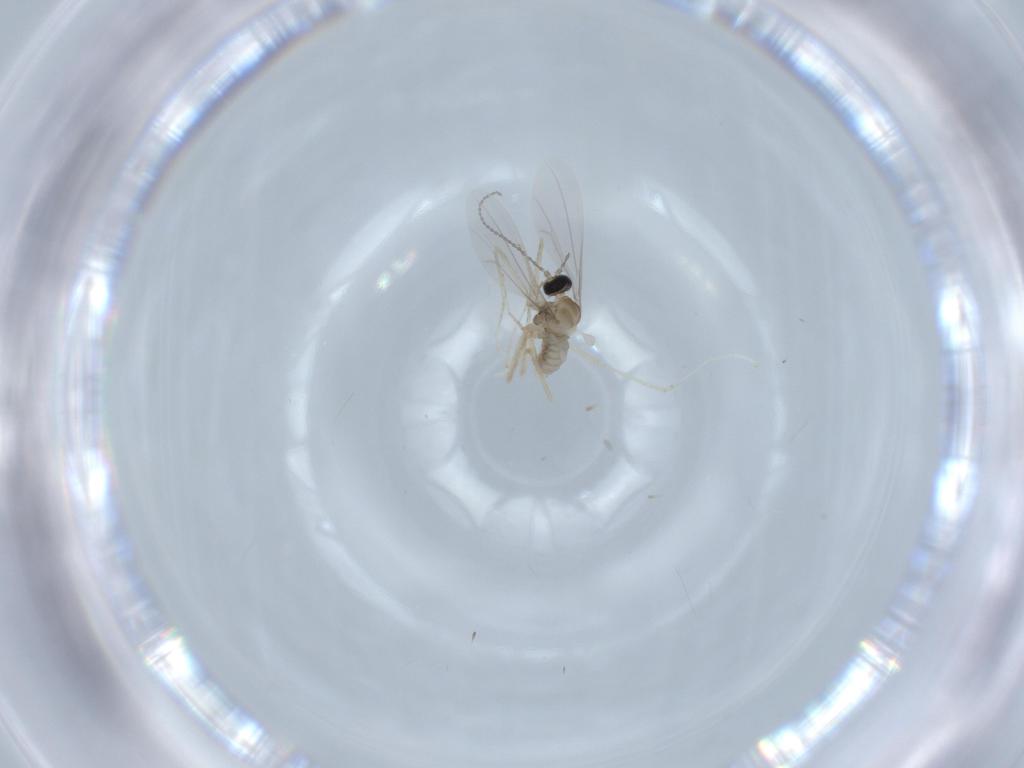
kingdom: Animalia
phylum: Arthropoda
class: Insecta
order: Diptera
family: Cecidomyiidae
